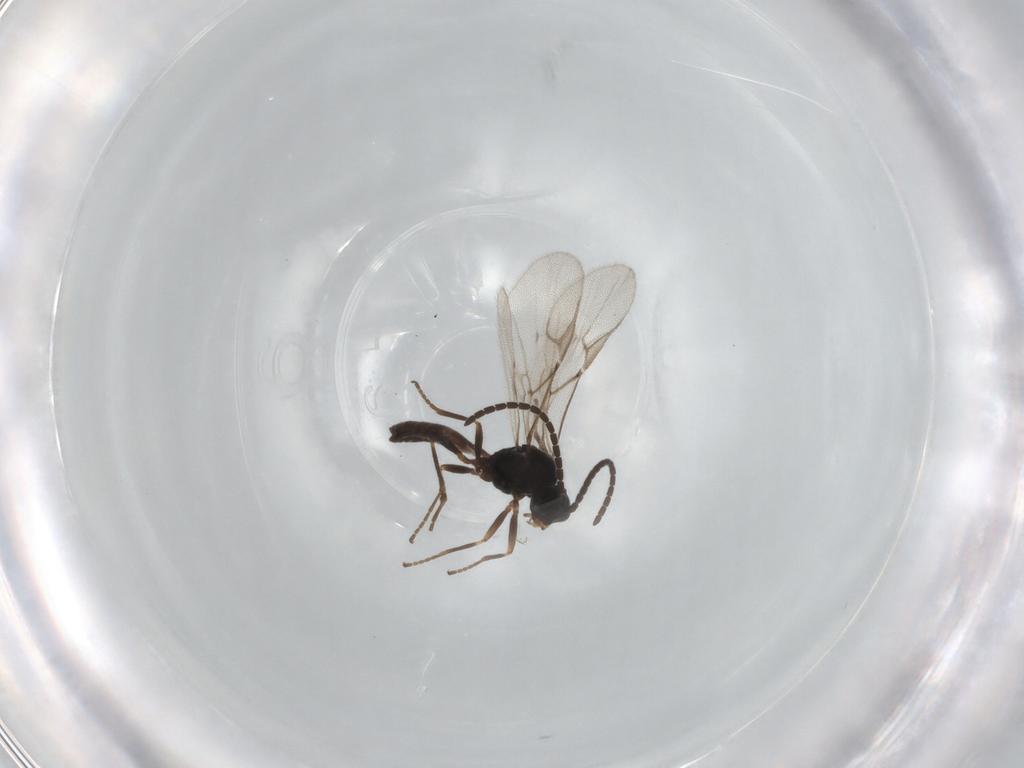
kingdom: Animalia
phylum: Arthropoda
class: Insecta
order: Hymenoptera
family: Braconidae
